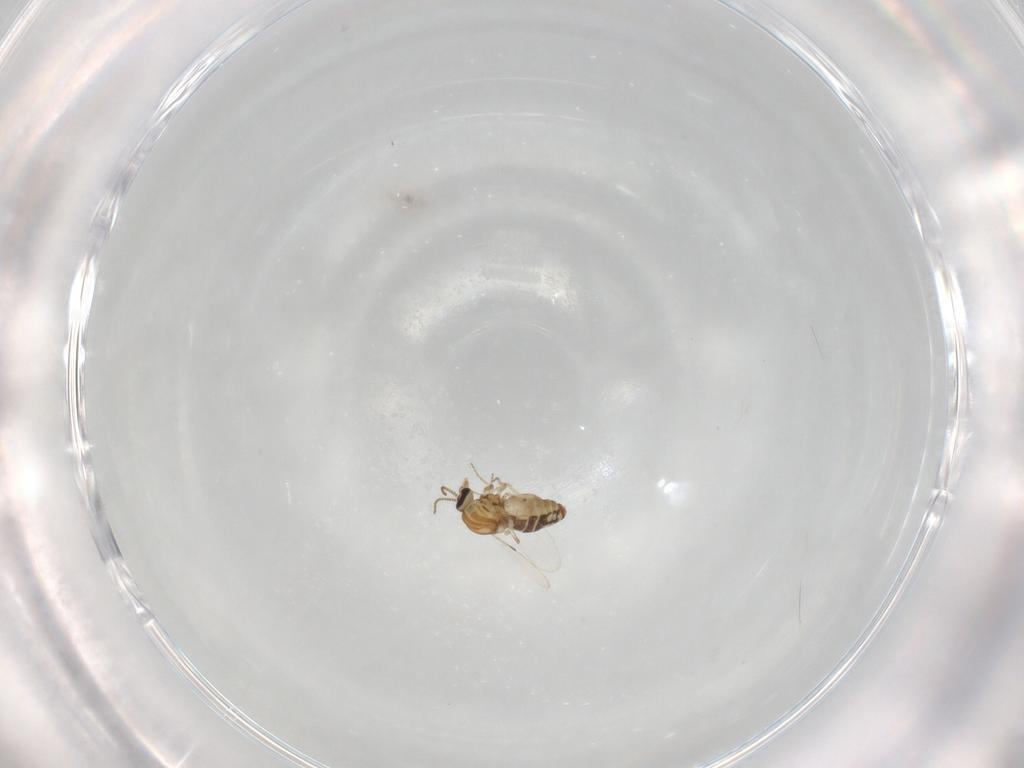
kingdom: Animalia
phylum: Arthropoda
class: Insecta
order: Diptera
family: Ceratopogonidae
